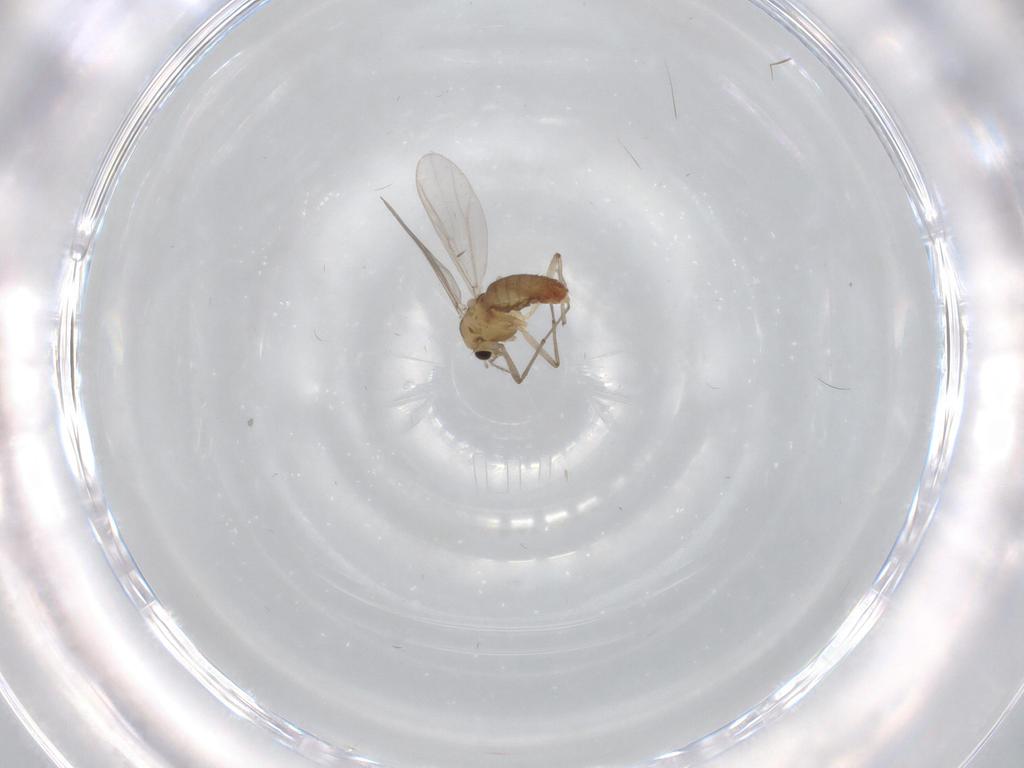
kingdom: Animalia
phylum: Arthropoda
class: Insecta
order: Diptera
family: Chironomidae
